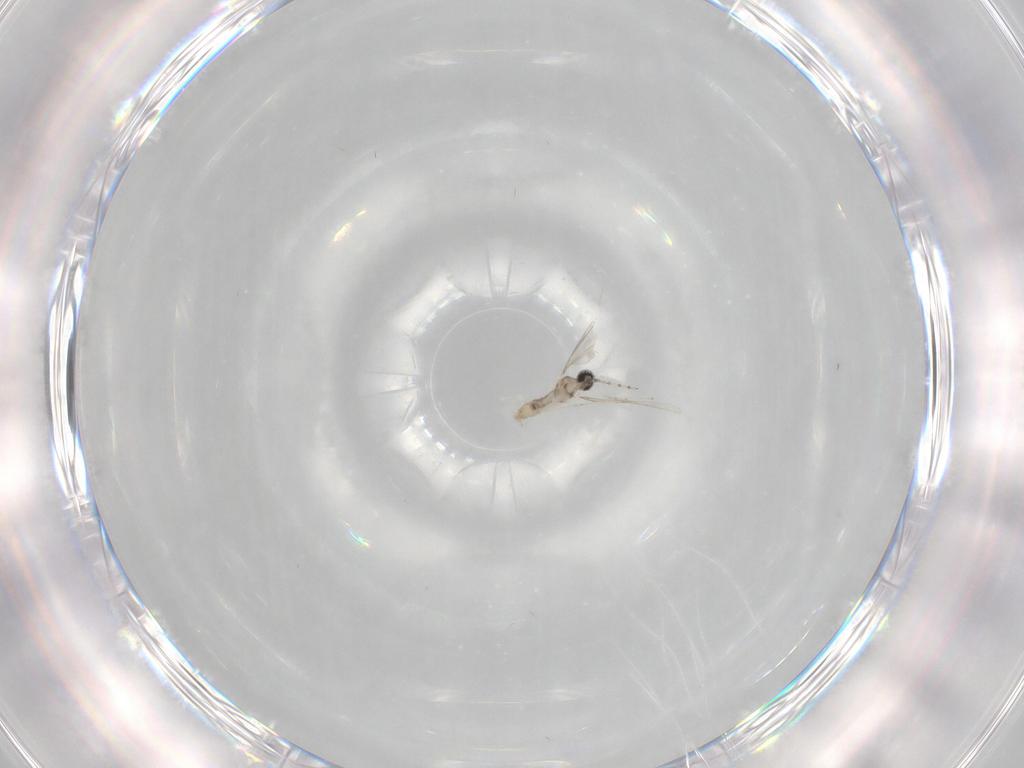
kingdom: Animalia
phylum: Arthropoda
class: Insecta
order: Diptera
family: Cecidomyiidae
